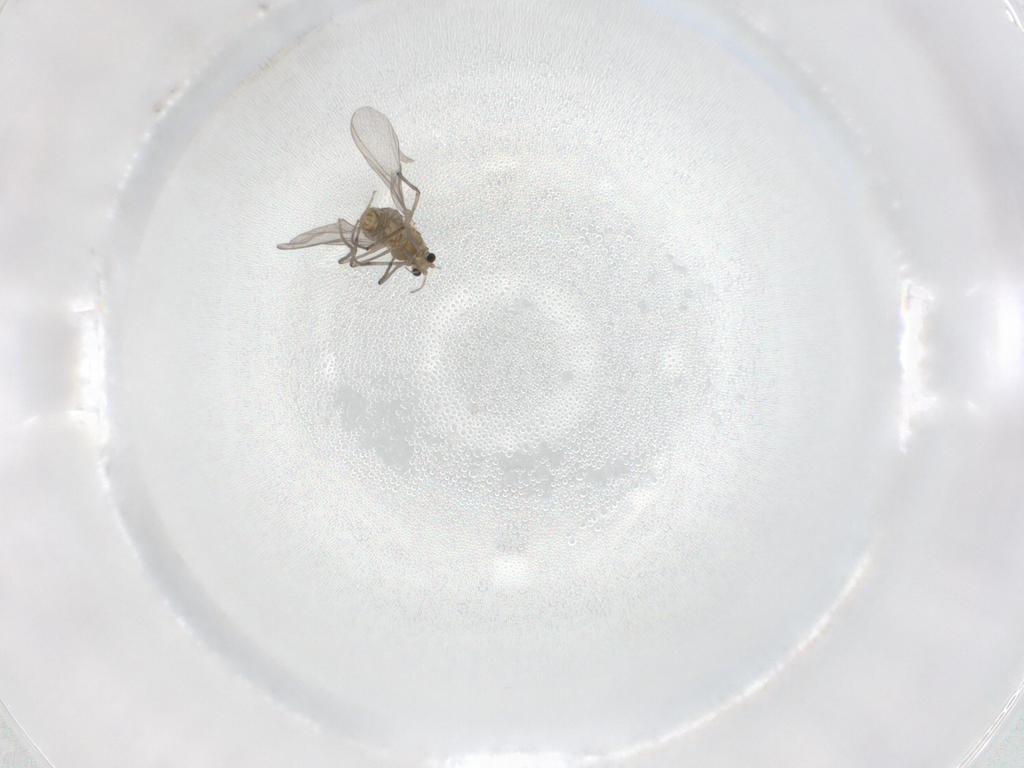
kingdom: Animalia
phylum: Arthropoda
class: Insecta
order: Diptera
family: Chironomidae
